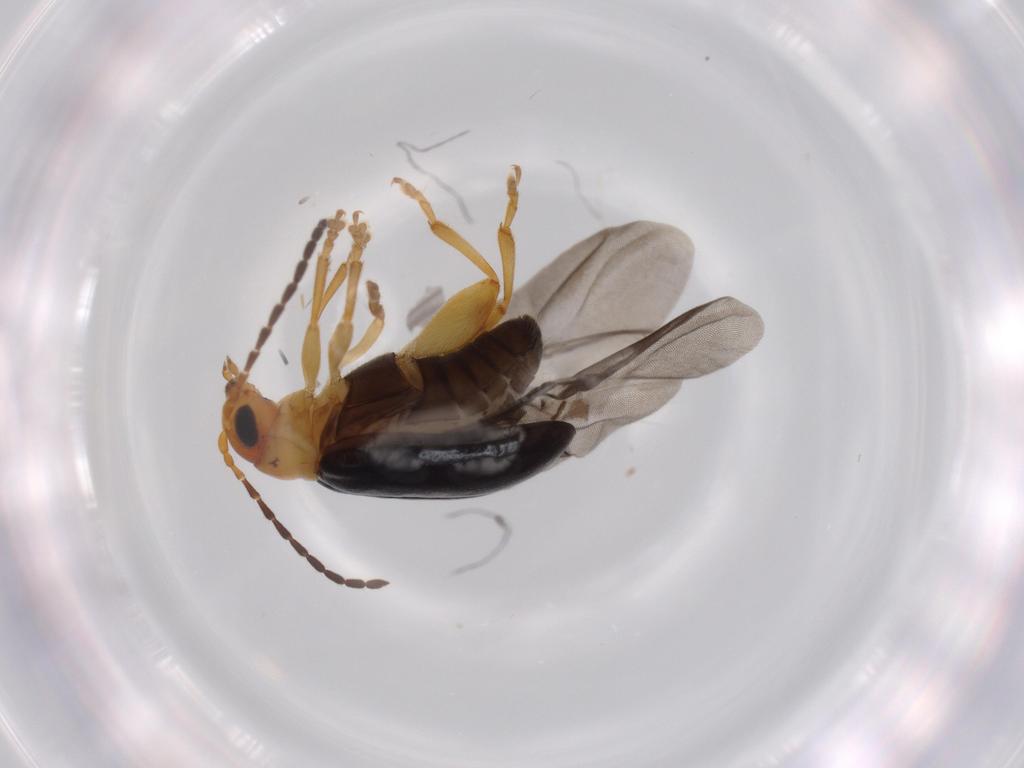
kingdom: Animalia
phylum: Arthropoda
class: Insecta
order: Coleoptera
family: Chrysomelidae
